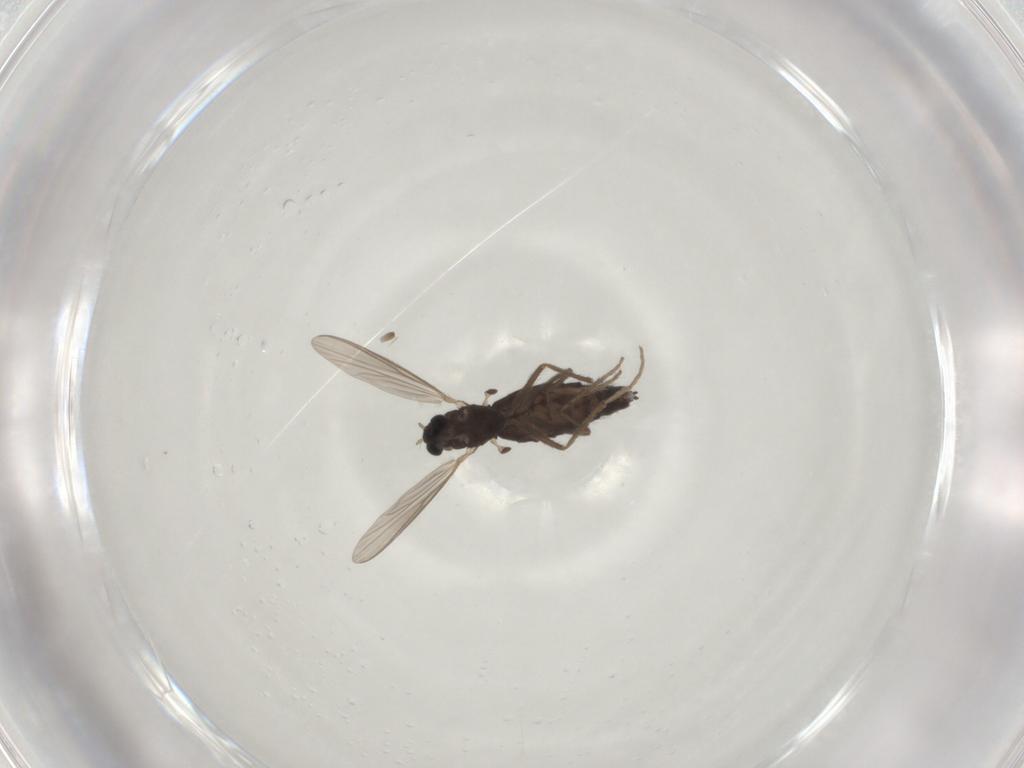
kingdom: Animalia
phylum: Arthropoda
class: Insecta
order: Diptera
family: Chironomidae
